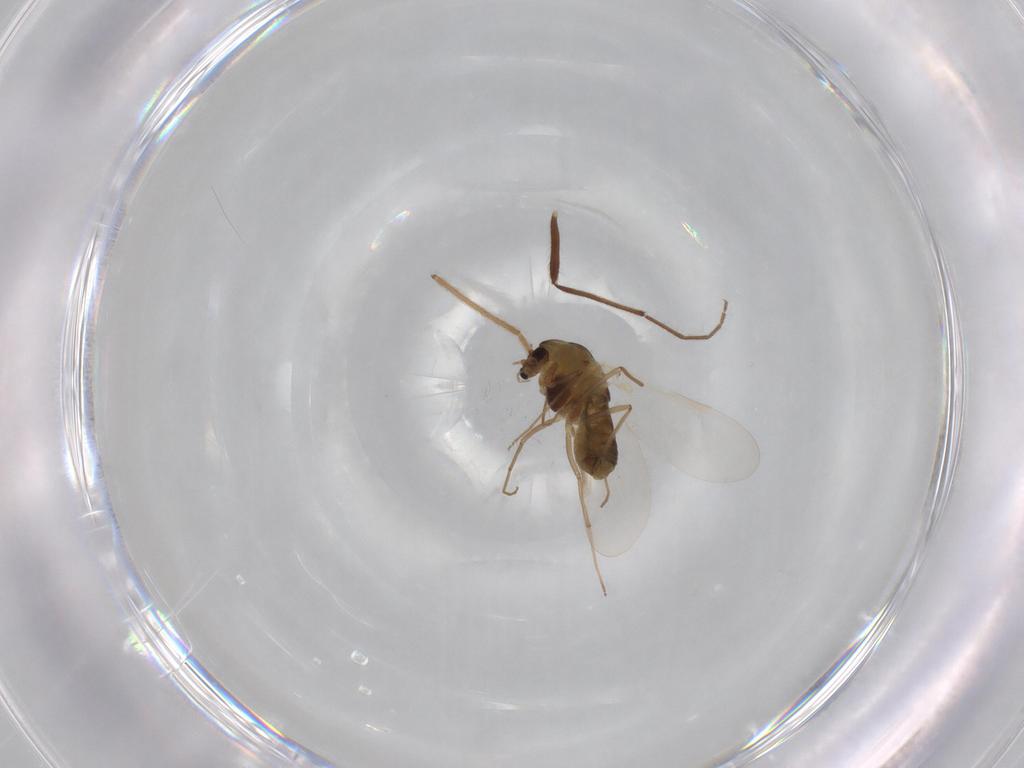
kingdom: Animalia
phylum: Arthropoda
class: Insecta
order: Diptera
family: Chironomidae
